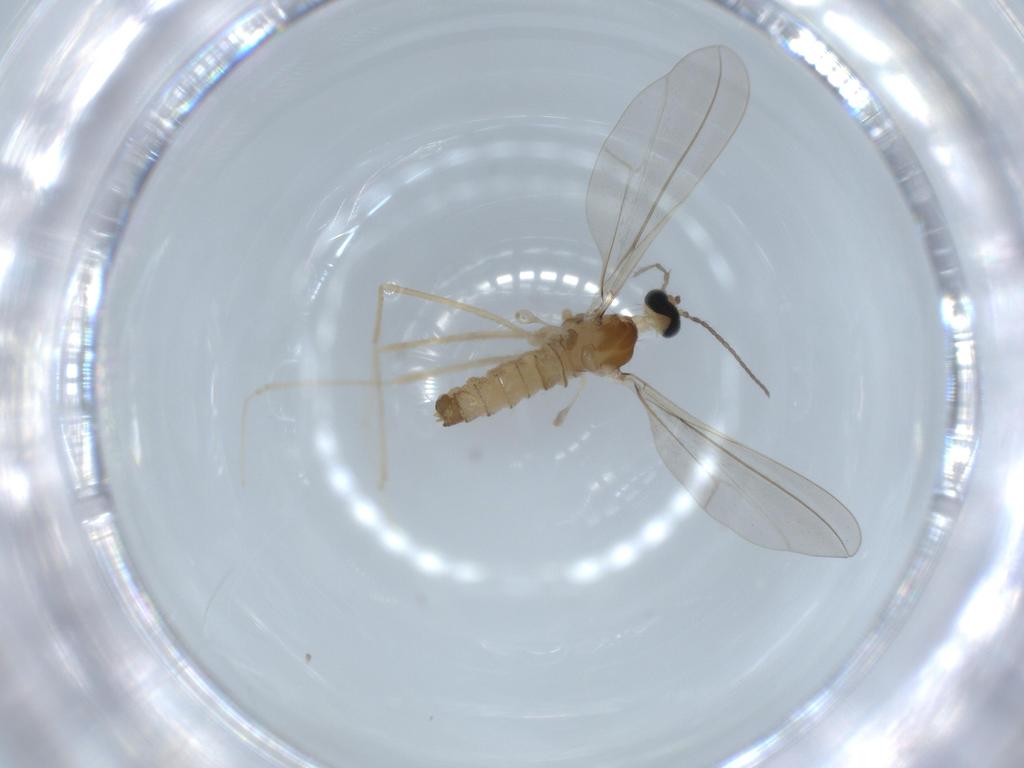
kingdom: Animalia
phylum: Arthropoda
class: Insecta
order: Diptera
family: Cecidomyiidae
